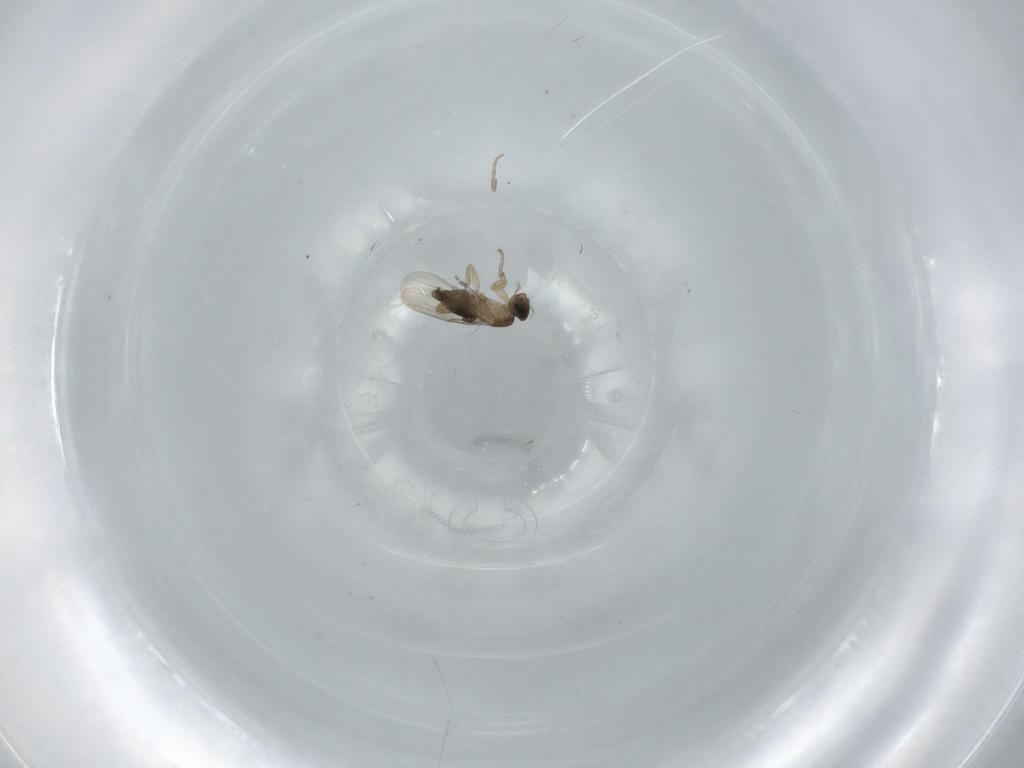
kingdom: Animalia
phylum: Arthropoda
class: Insecta
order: Diptera
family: Phoridae
